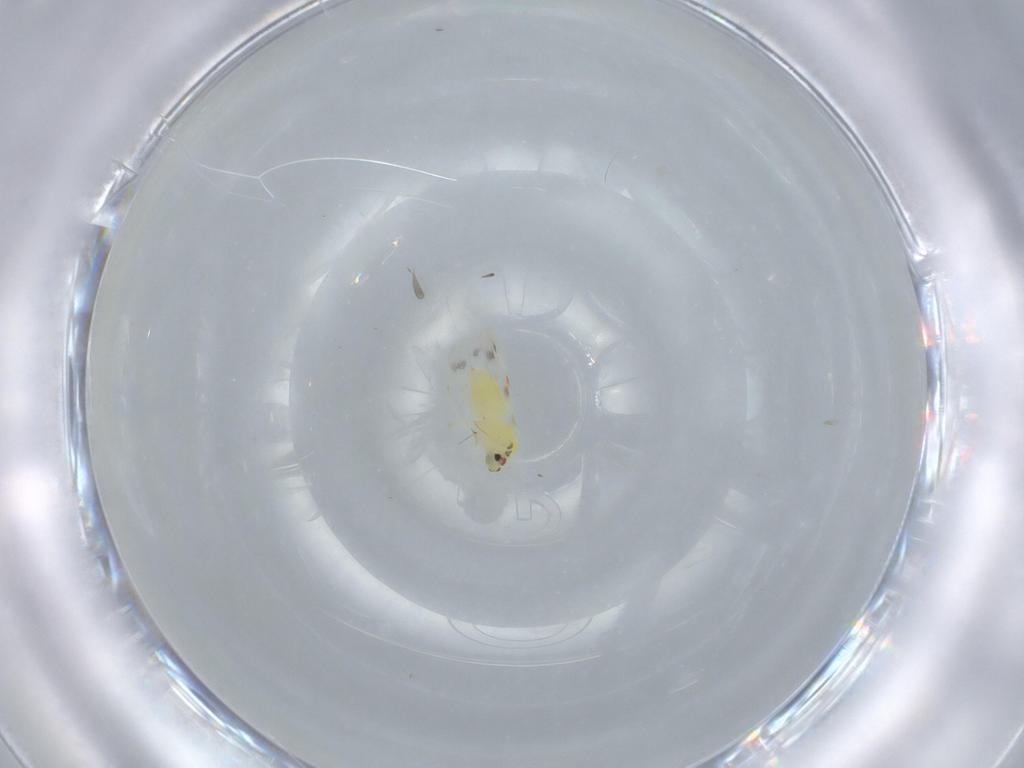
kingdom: Animalia
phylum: Arthropoda
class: Insecta
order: Hemiptera
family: Aleyrodidae
